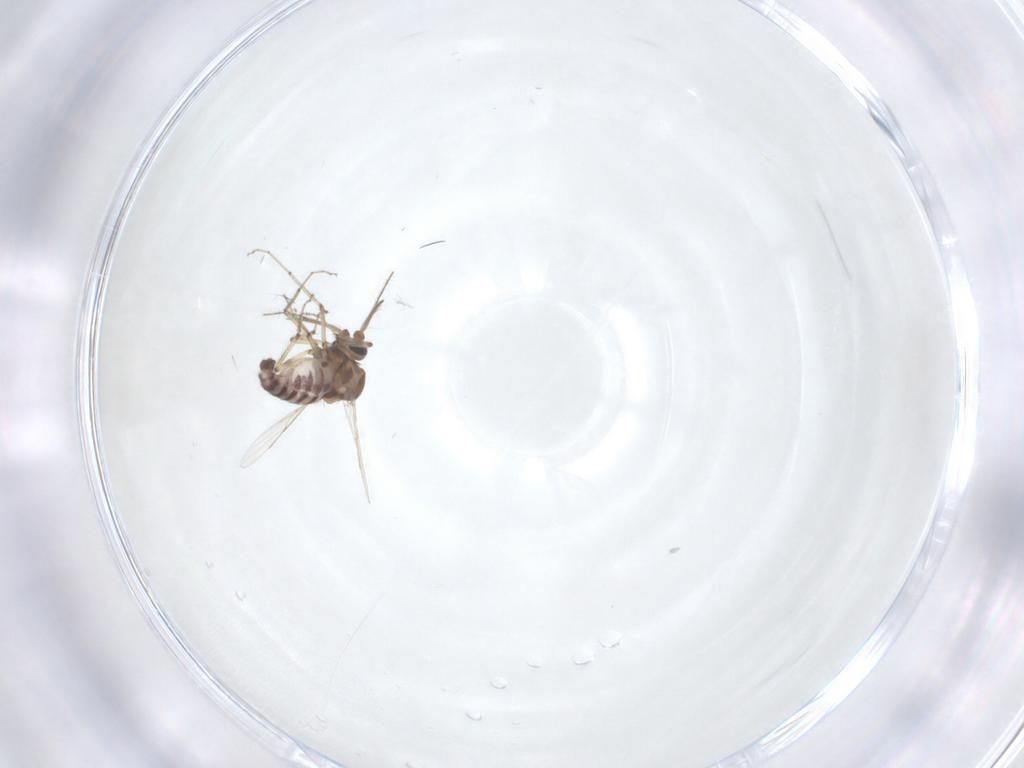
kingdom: Animalia
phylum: Arthropoda
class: Insecta
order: Diptera
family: Ceratopogonidae
